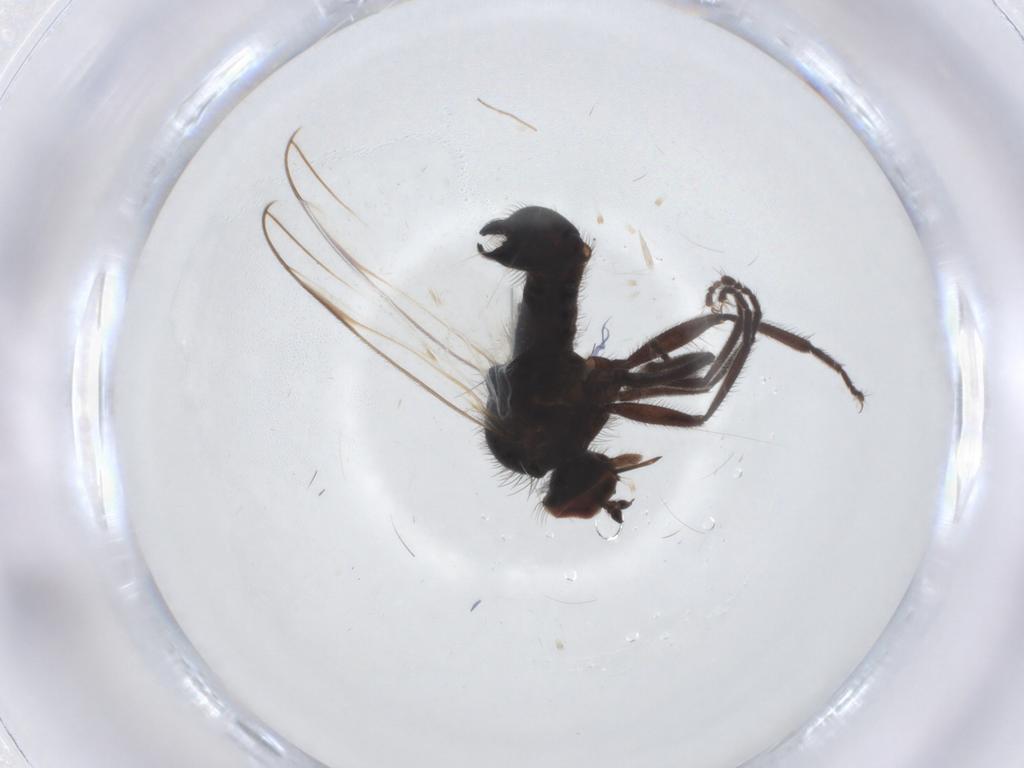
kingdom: Animalia
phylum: Arthropoda
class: Insecta
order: Diptera
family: Empididae
